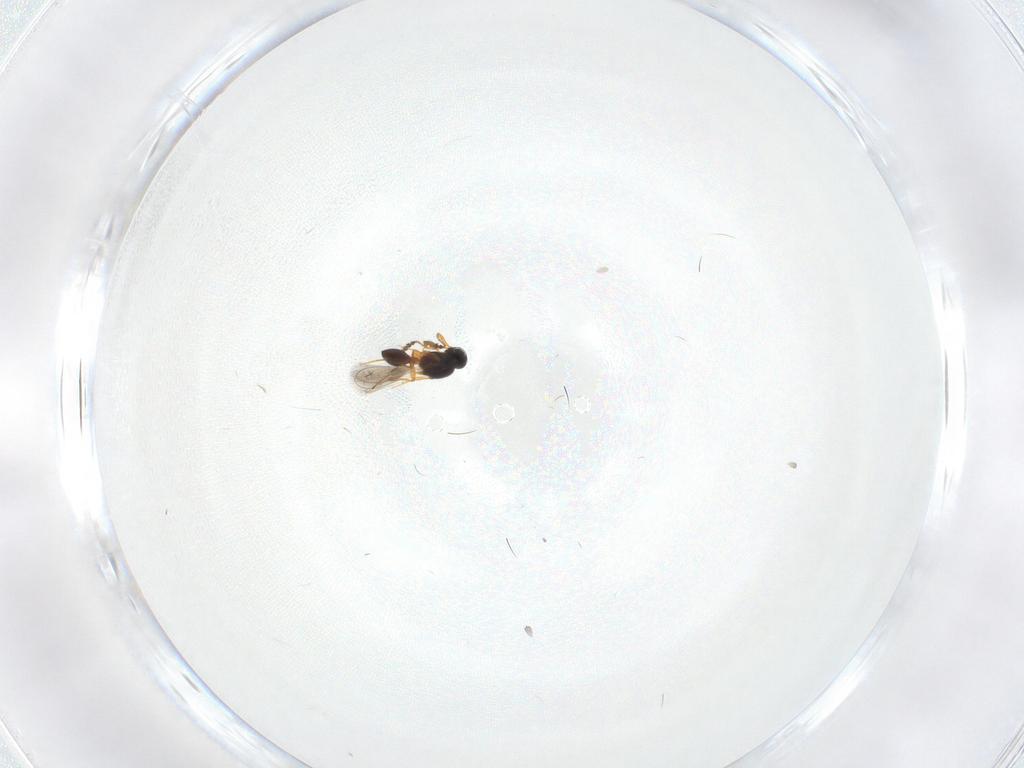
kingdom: Animalia
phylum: Arthropoda
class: Insecta
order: Hymenoptera
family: Platygastridae
